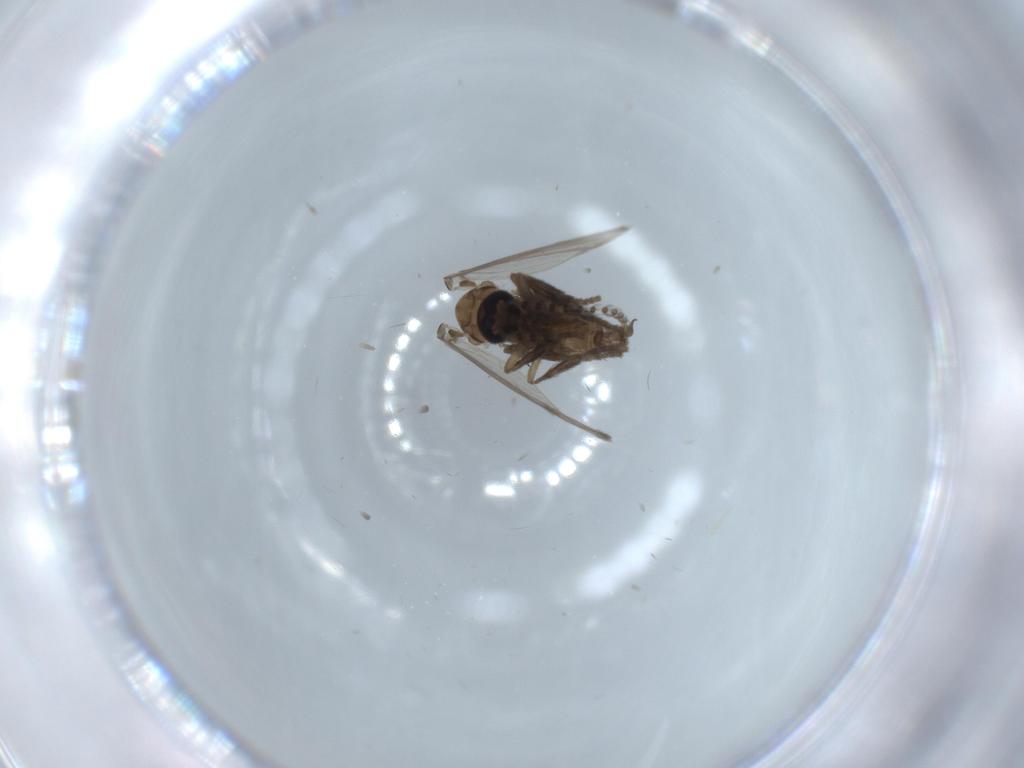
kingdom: Animalia
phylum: Arthropoda
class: Insecta
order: Diptera
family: Psychodidae
